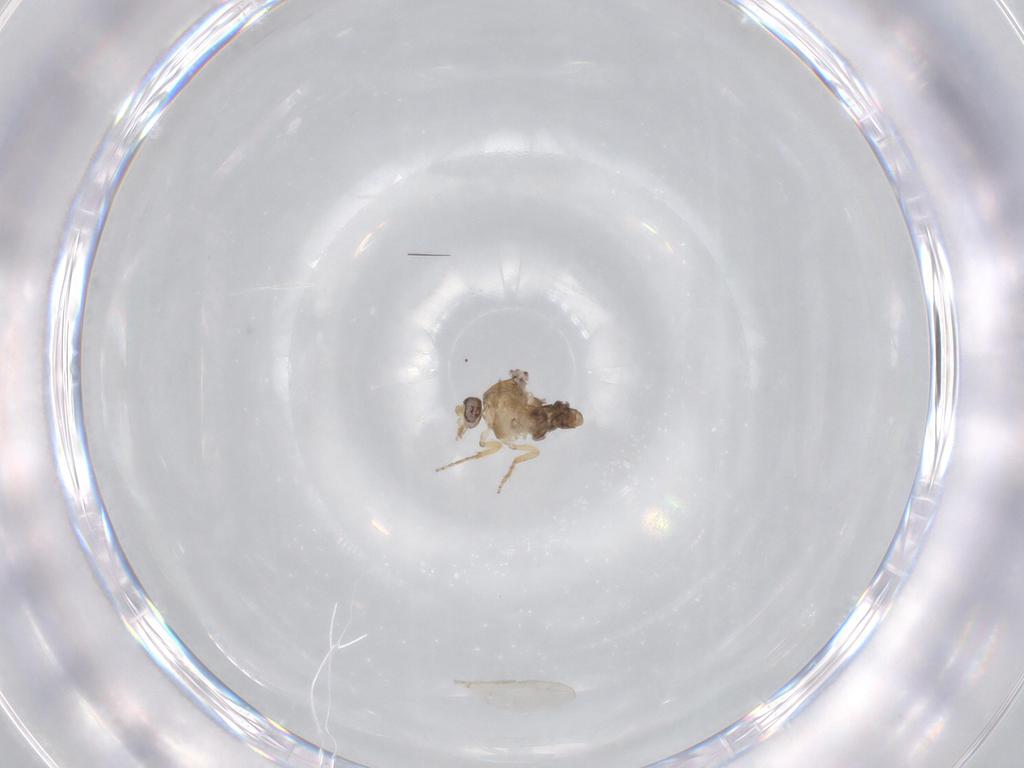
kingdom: Animalia
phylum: Arthropoda
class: Insecta
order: Diptera
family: Ceratopogonidae
